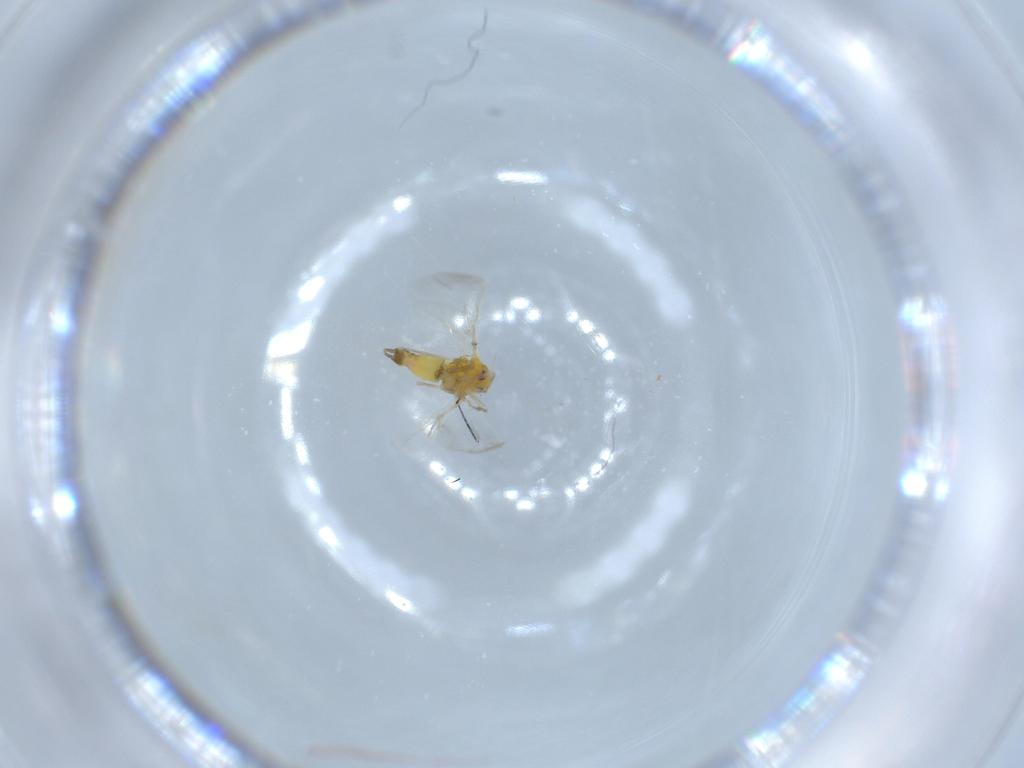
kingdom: Animalia
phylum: Arthropoda
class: Insecta
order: Hemiptera
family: Aleyrodidae
